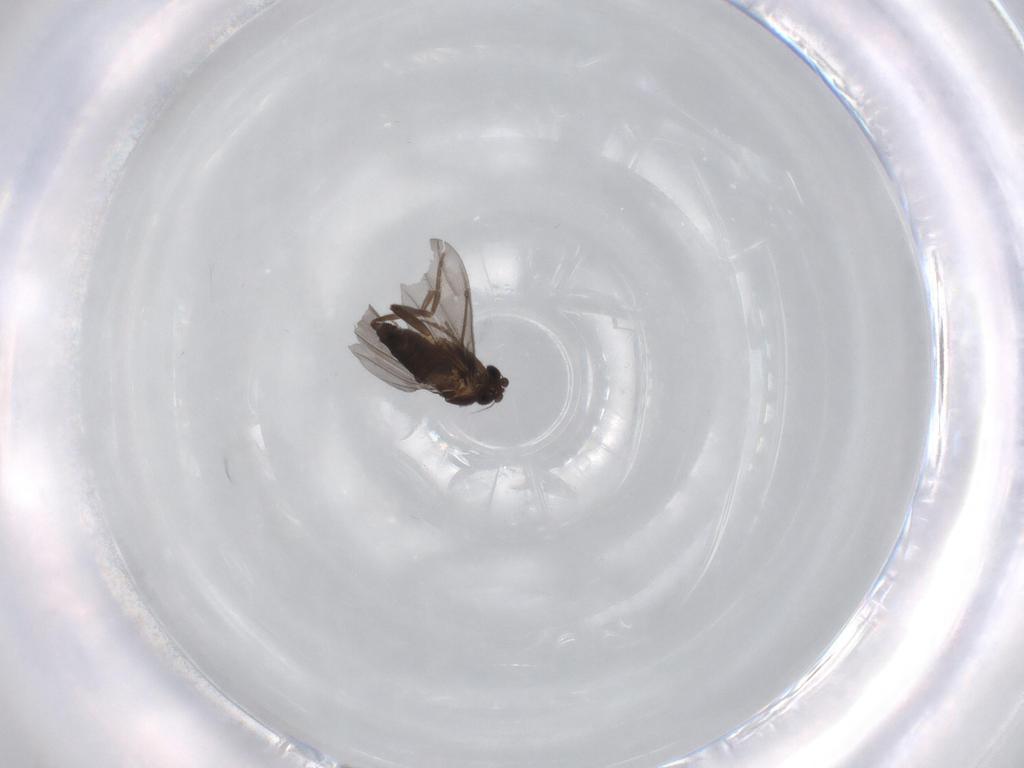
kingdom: Animalia
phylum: Arthropoda
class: Insecta
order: Diptera
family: Phoridae
